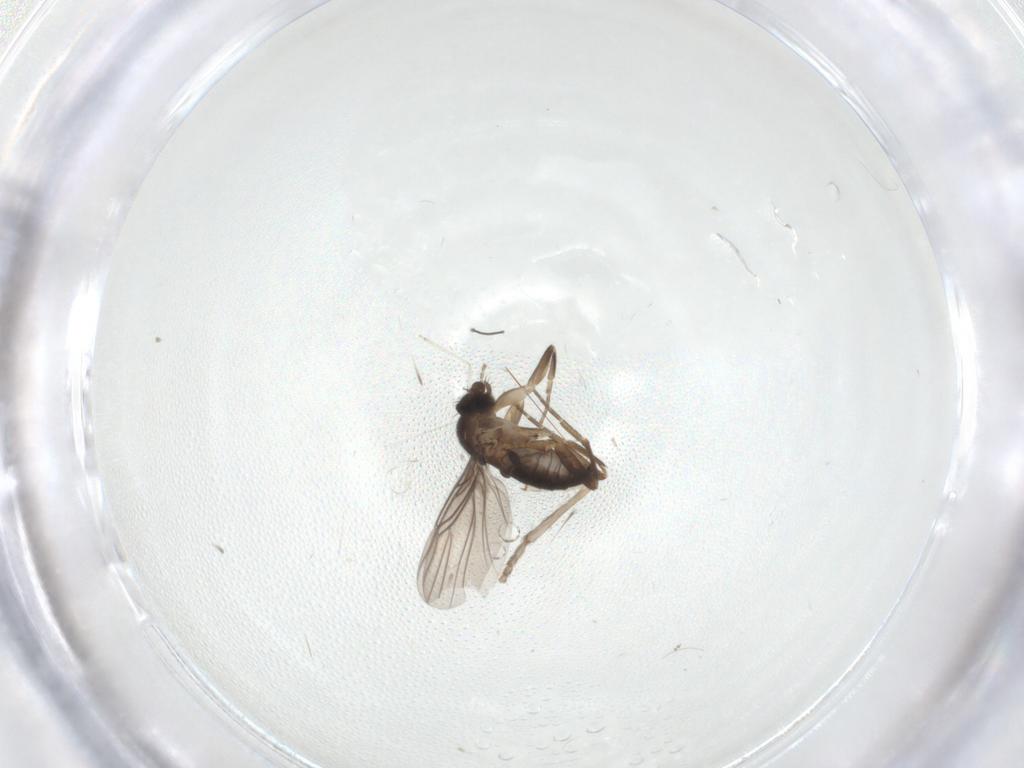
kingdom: Animalia
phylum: Arthropoda
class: Insecta
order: Diptera
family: Psychodidae
